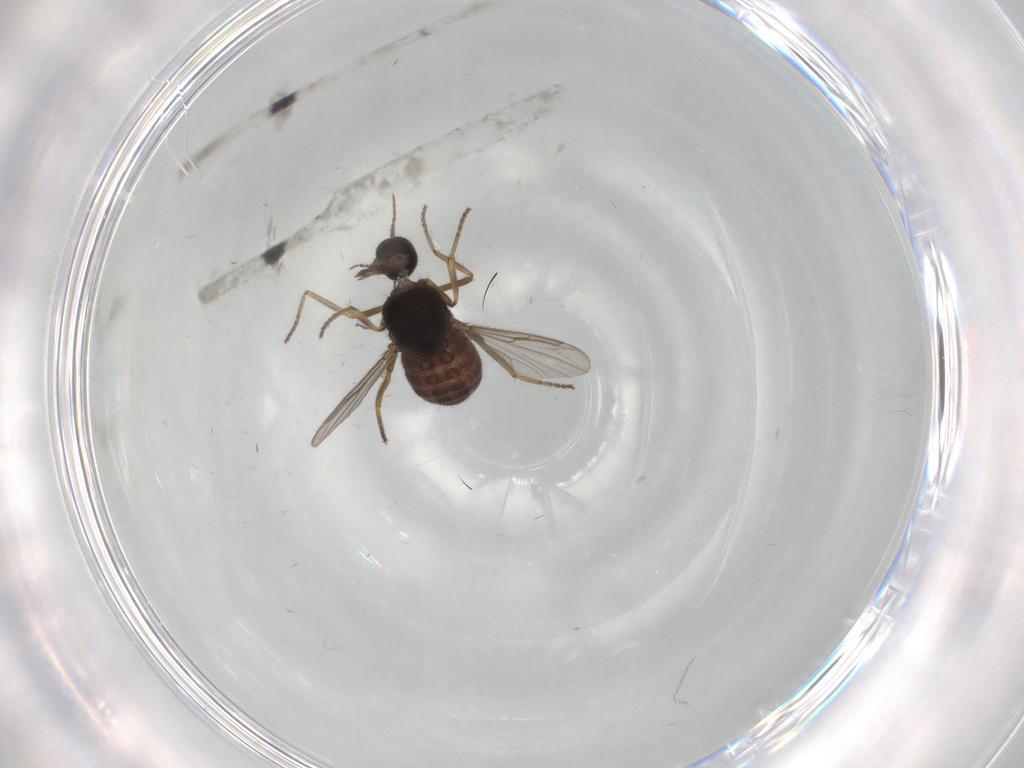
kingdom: Animalia
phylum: Arthropoda
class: Insecta
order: Diptera
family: Ceratopogonidae
